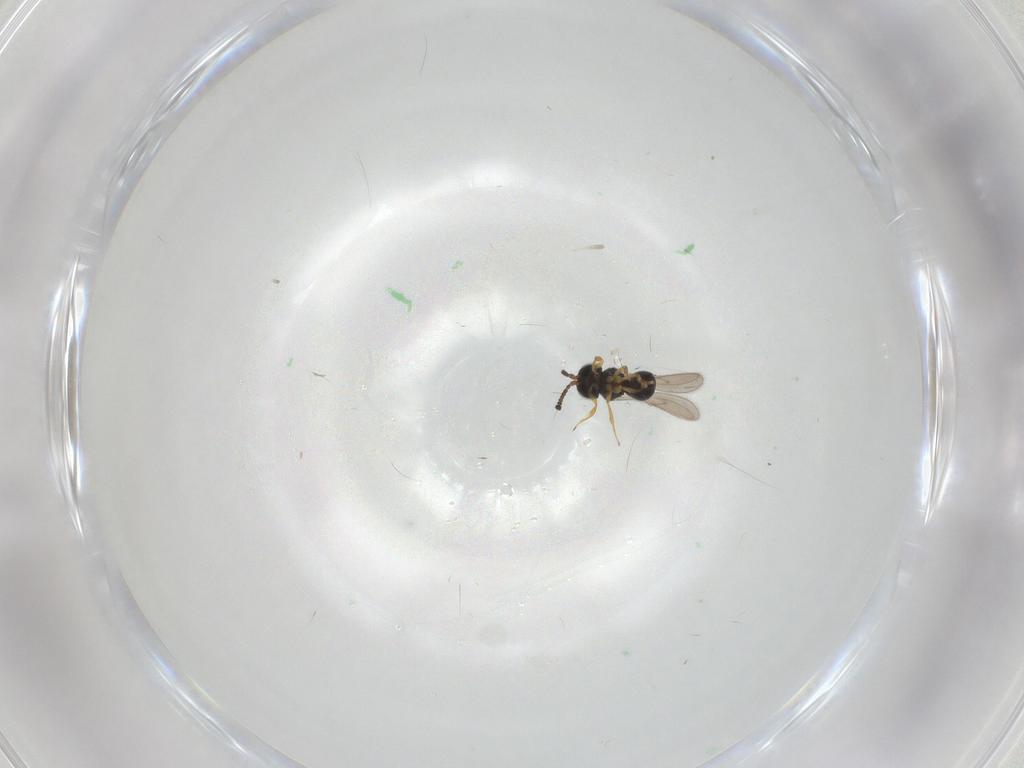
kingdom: Animalia
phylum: Arthropoda
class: Insecta
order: Hymenoptera
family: Scelionidae
